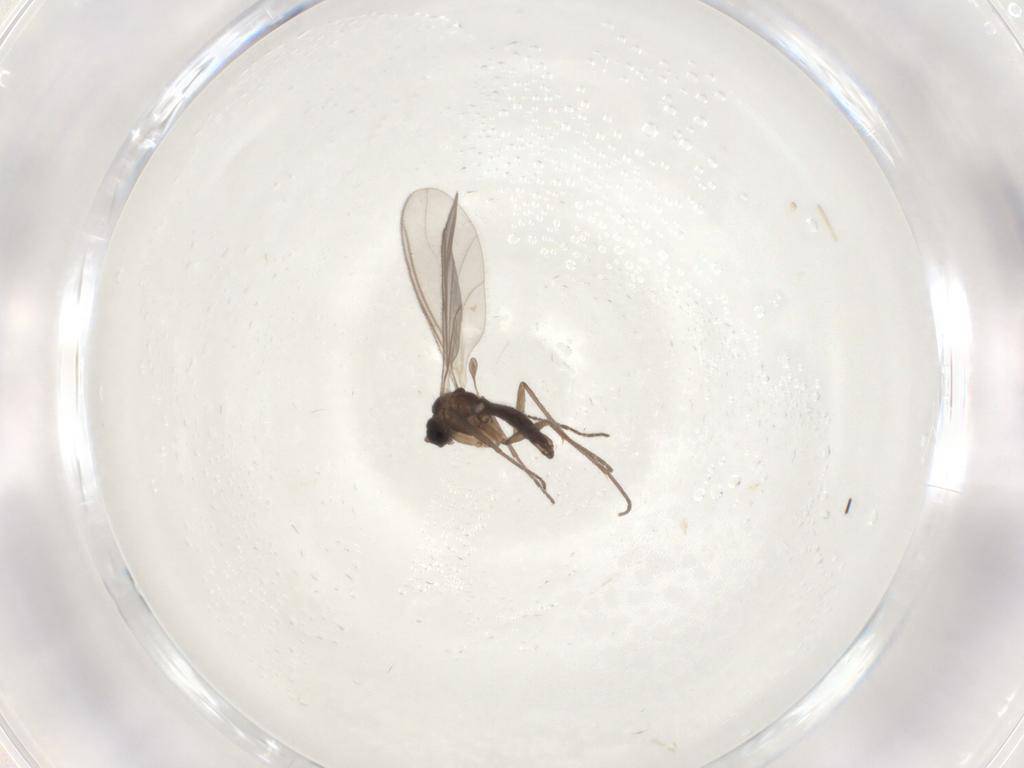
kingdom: Animalia
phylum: Arthropoda
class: Insecta
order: Diptera
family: Sciaridae
